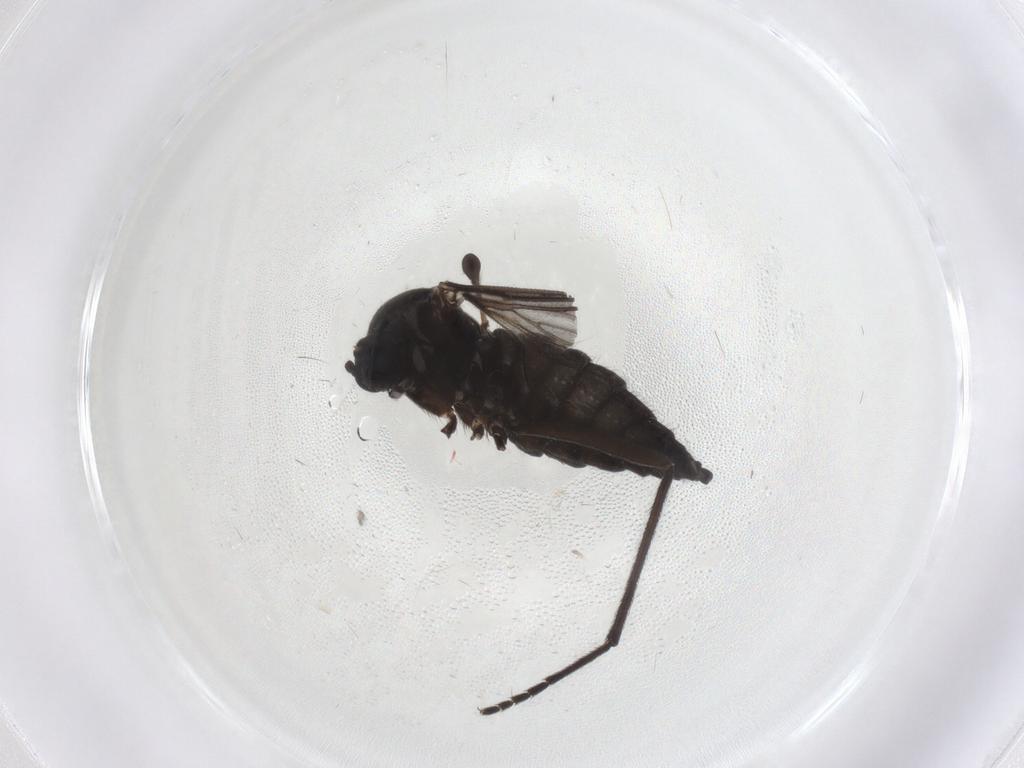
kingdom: Animalia
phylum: Arthropoda
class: Insecta
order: Diptera
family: Sciaridae
